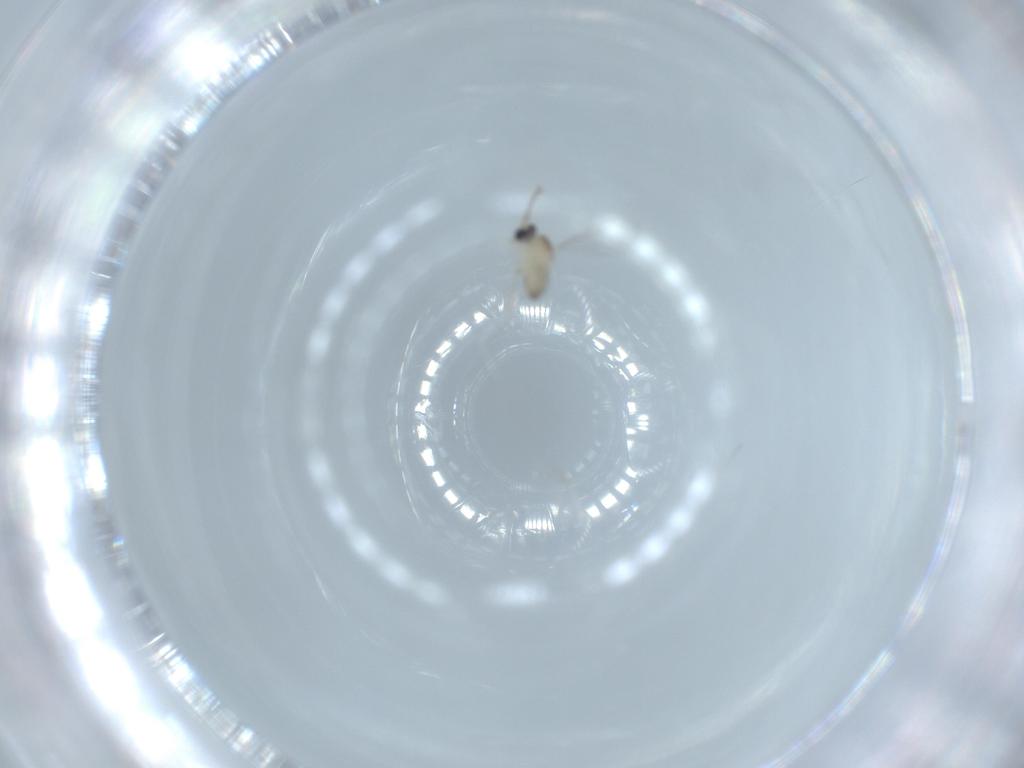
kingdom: Animalia
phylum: Arthropoda
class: Insecta
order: Diptera
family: Cecidomyiidae
